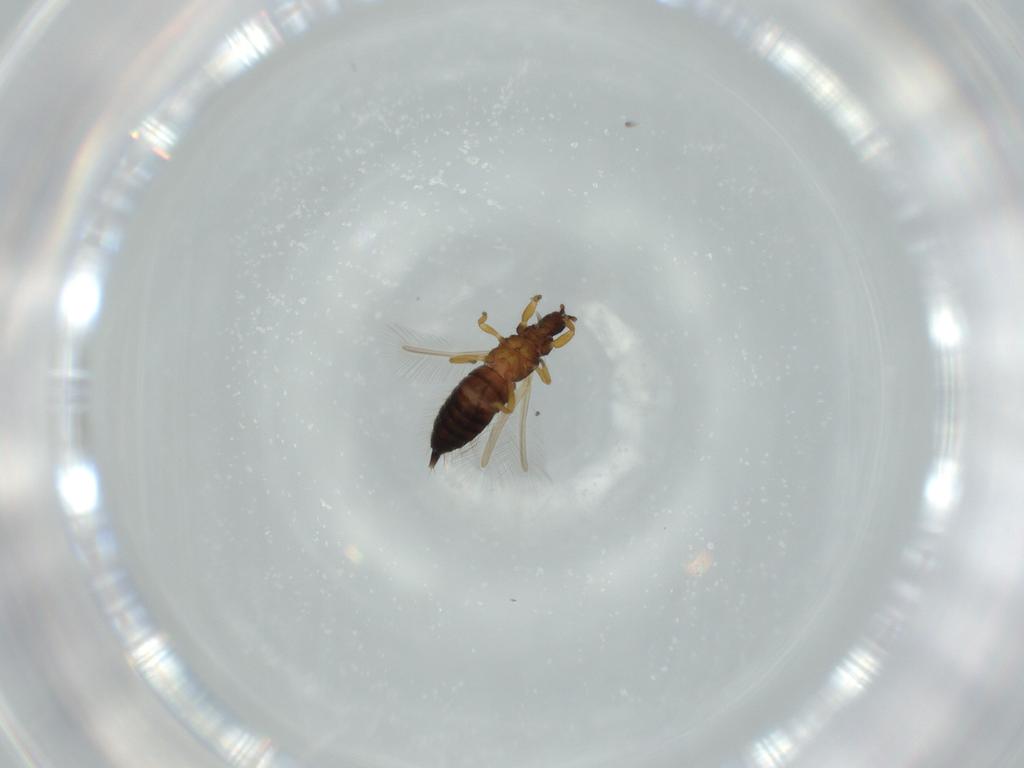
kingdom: Animalia
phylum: Arthropoda
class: Insecta
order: Thysanoptera
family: Phlaeothripidae
